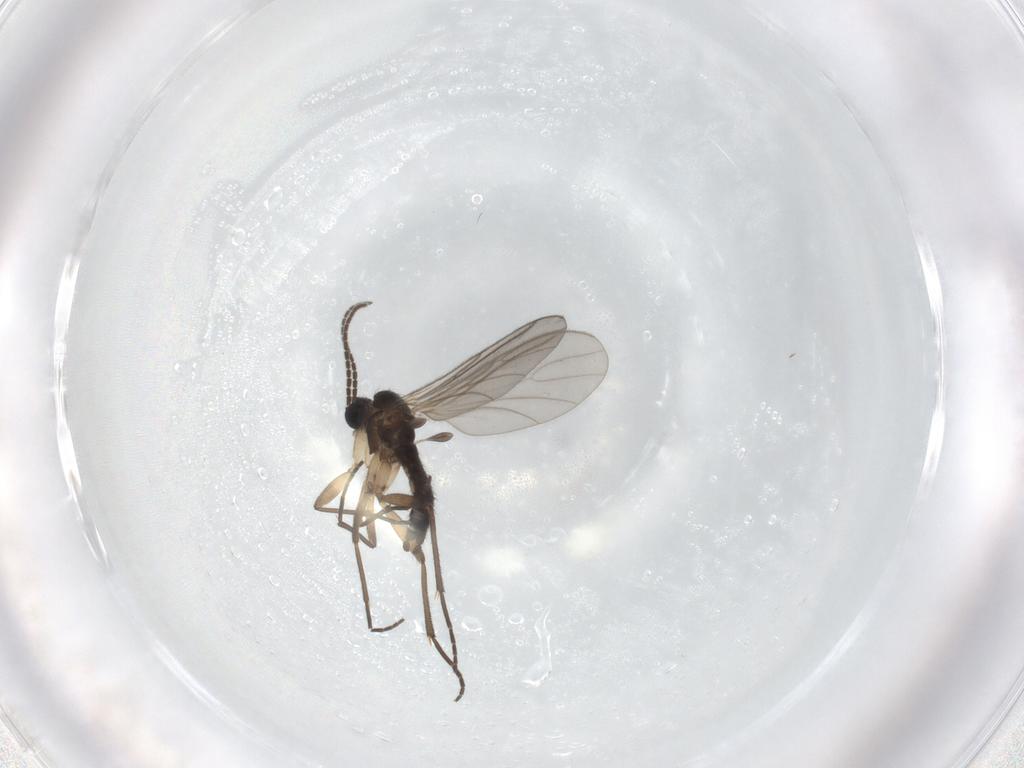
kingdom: Animalia
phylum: Arthropoda
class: Insecta
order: Diptera
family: Sciaridae
